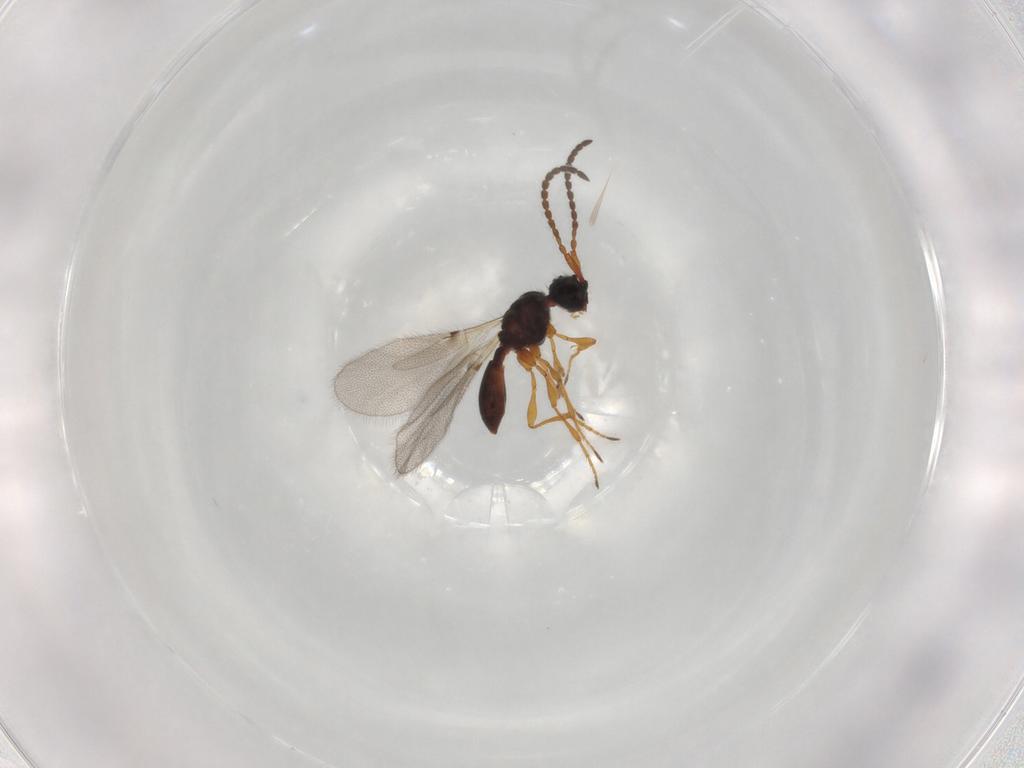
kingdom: Animalia
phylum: Arthropoda
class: Insecta
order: Hymenoptera
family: Diapriidae
